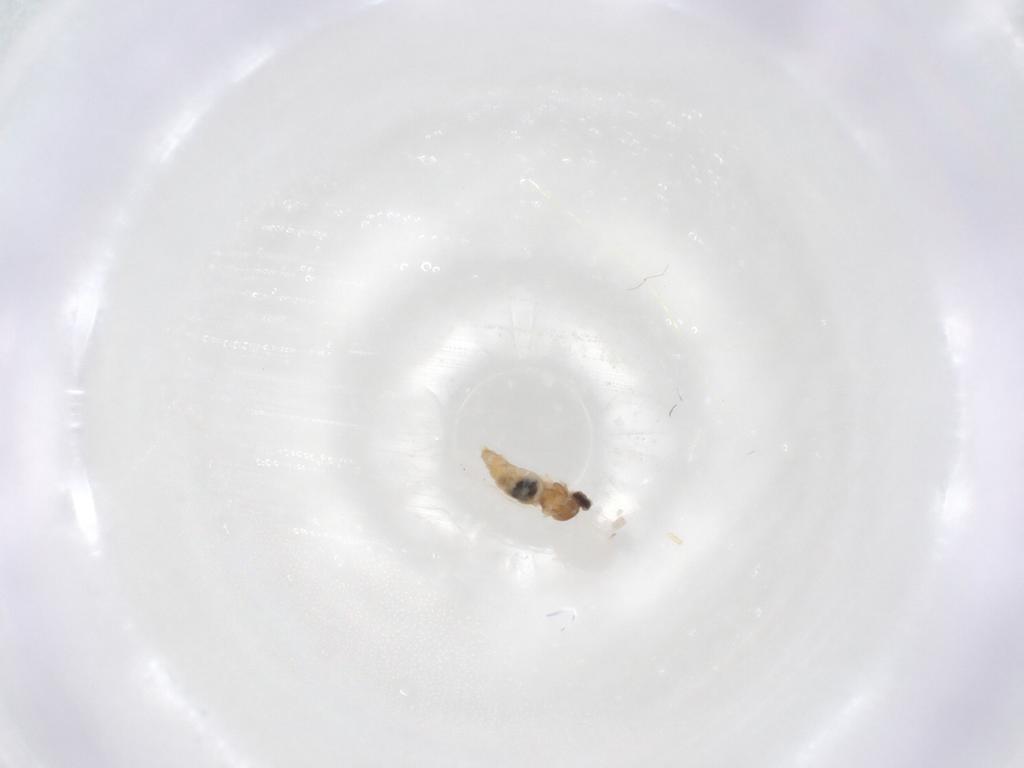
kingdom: Animalia
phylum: Arthropoda
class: Insecta
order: Diptera
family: Cecidomyiidae
